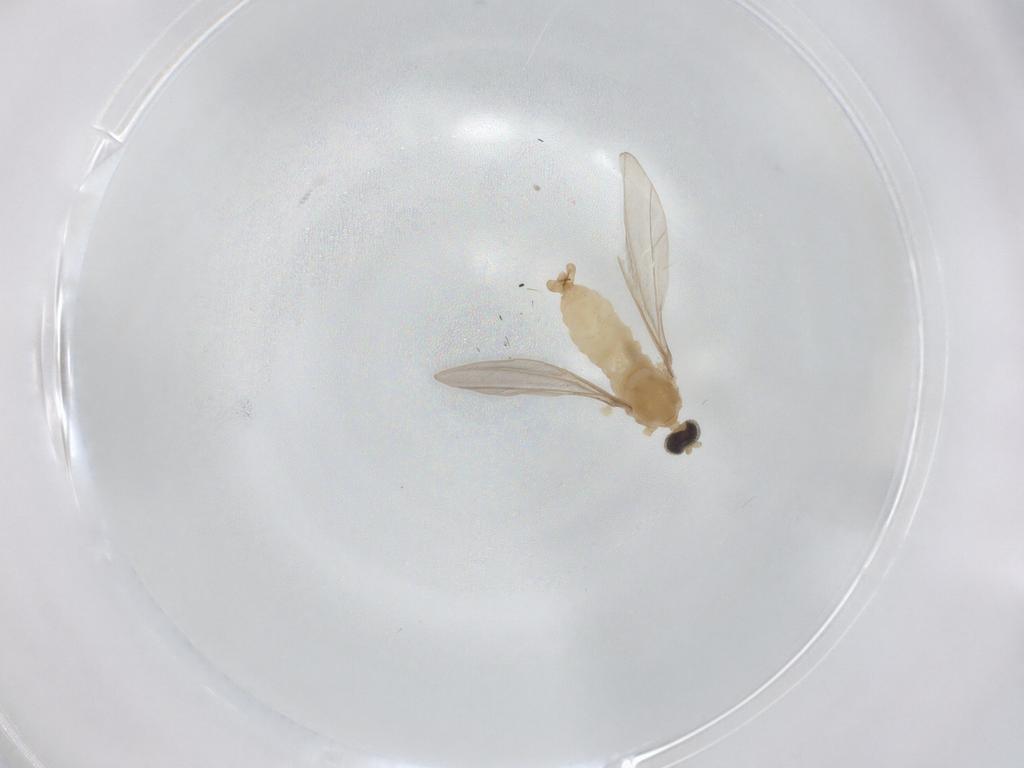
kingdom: Animalia
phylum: Arthropoda
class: Insecta
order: Diptera
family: Cecidomyiidae
